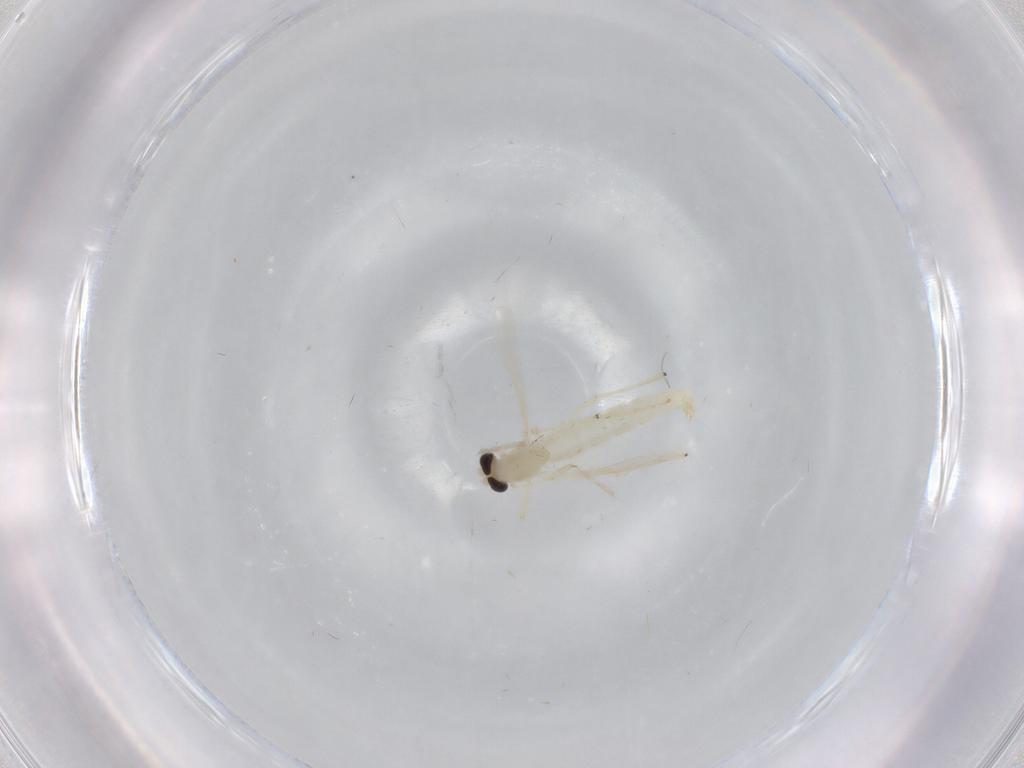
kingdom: Animalia
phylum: Arthropoda
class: Insecta
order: Diptera
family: Chironomidae
